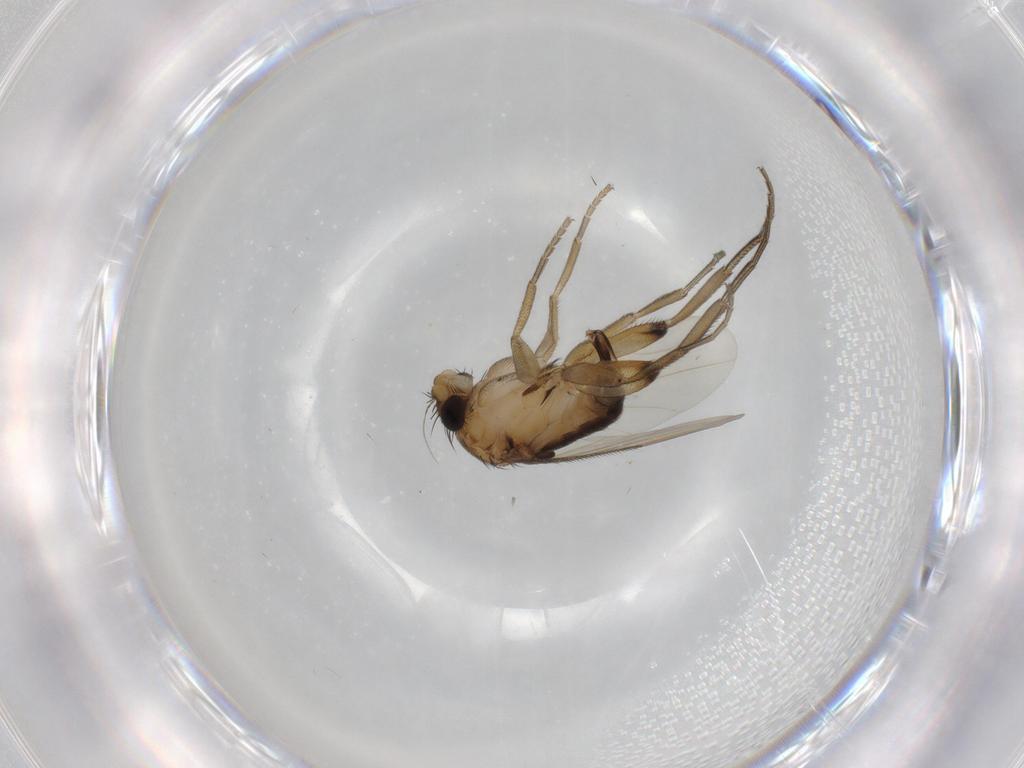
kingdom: Animalia
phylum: Arthropoda
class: Insecta
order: Diptera
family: Phoridae
